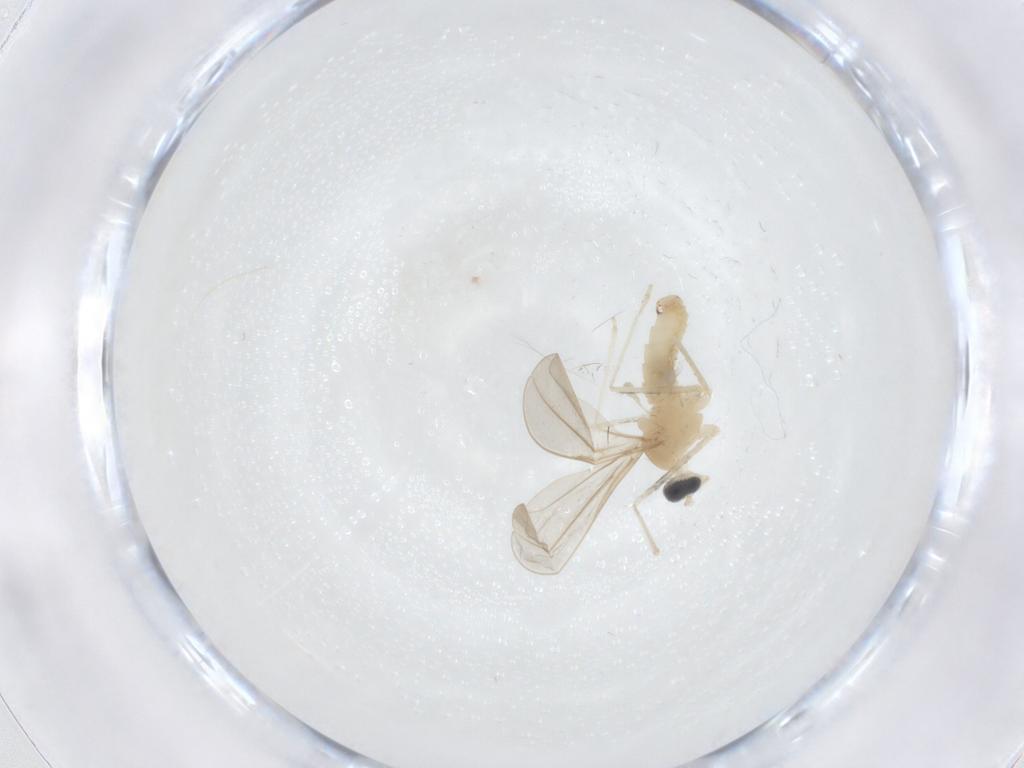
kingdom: Animalia
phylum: Arthropoda
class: Insecta
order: Diptera
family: Cecidomyiidae
